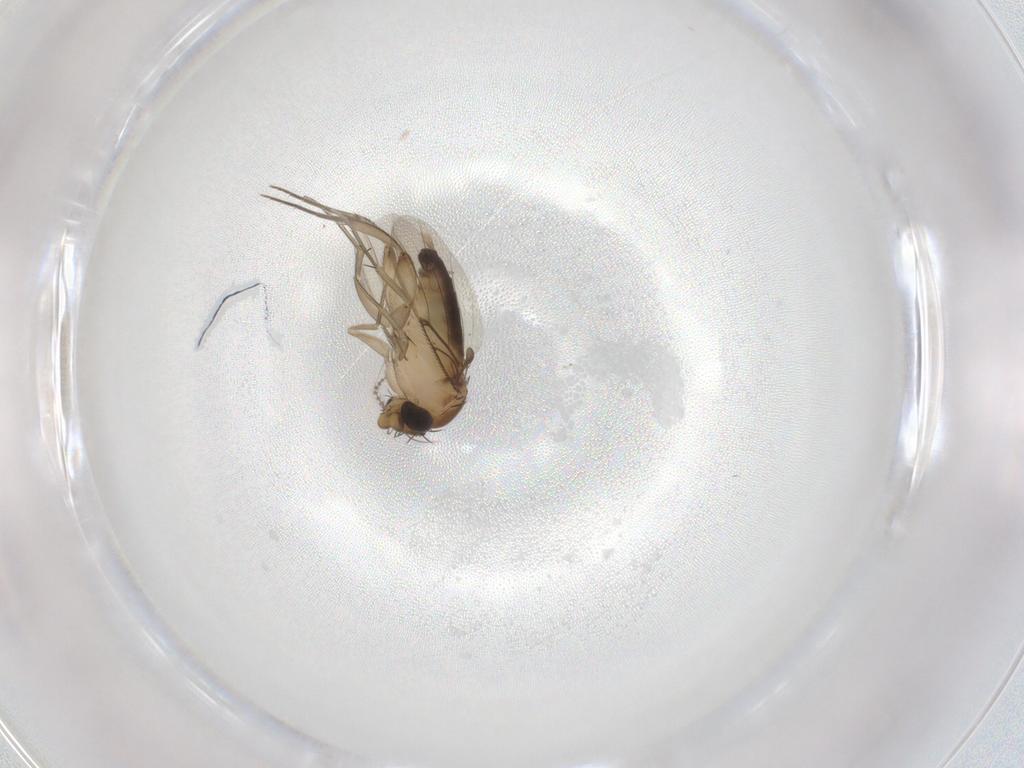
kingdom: Animalia
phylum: Arthropoda
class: Insecta
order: Diptera
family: Phoridae
